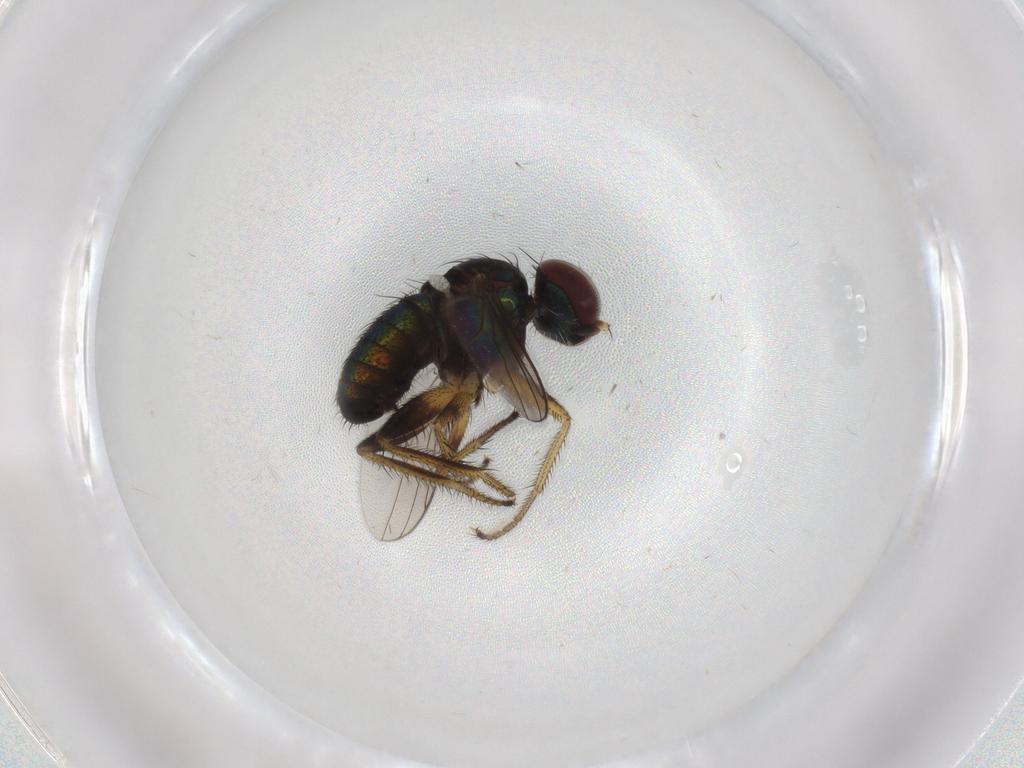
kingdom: Animalia
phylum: Arthropoda
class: Insecta
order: Diptera
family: Dolichopodidae
